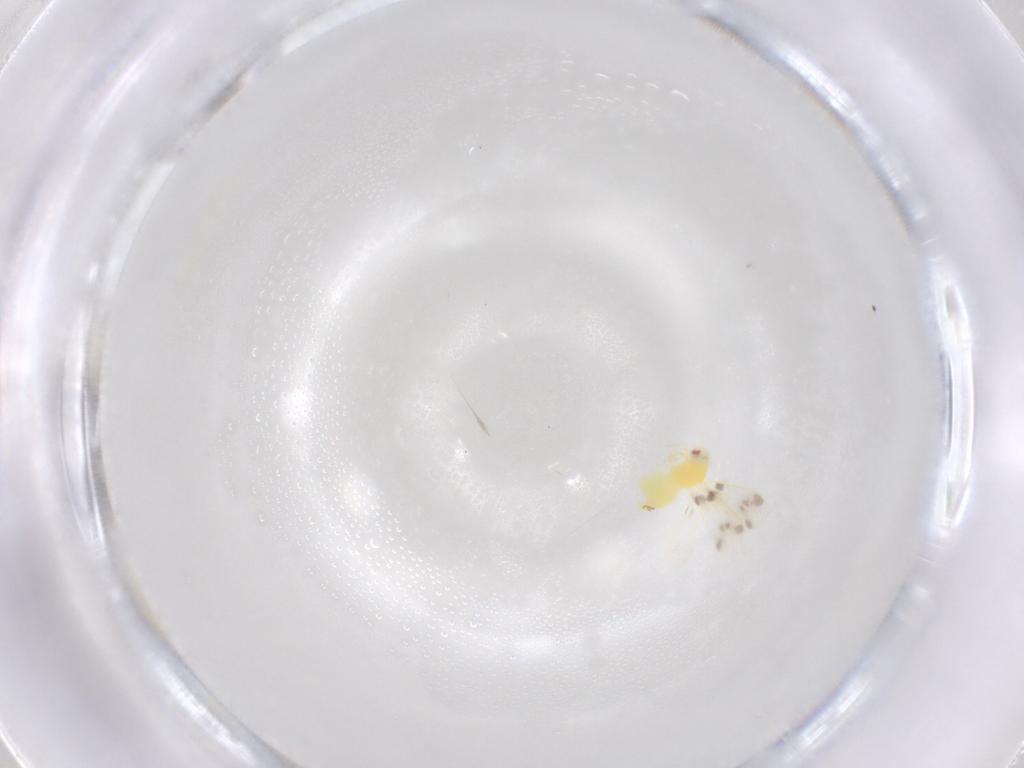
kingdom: Animalia
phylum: Arthropoda
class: Insecta
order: Hemiptera
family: Aleyrodidae
